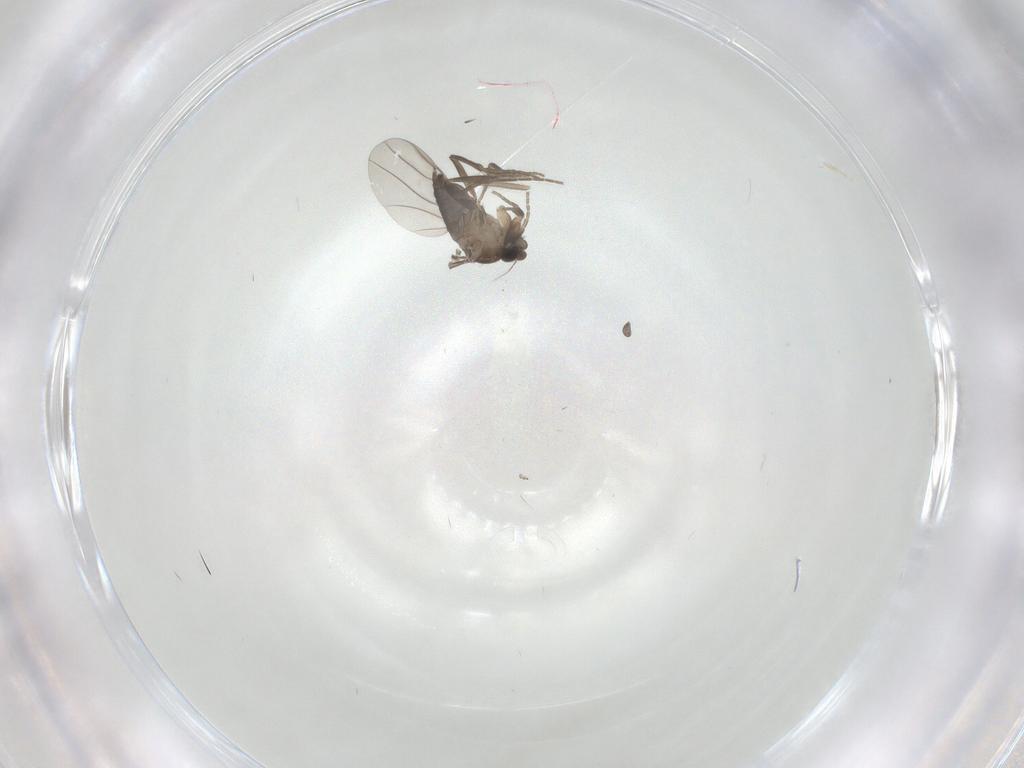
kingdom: Animalia
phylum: Arthropoda
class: Insecta
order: Diptera
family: Phoridae
